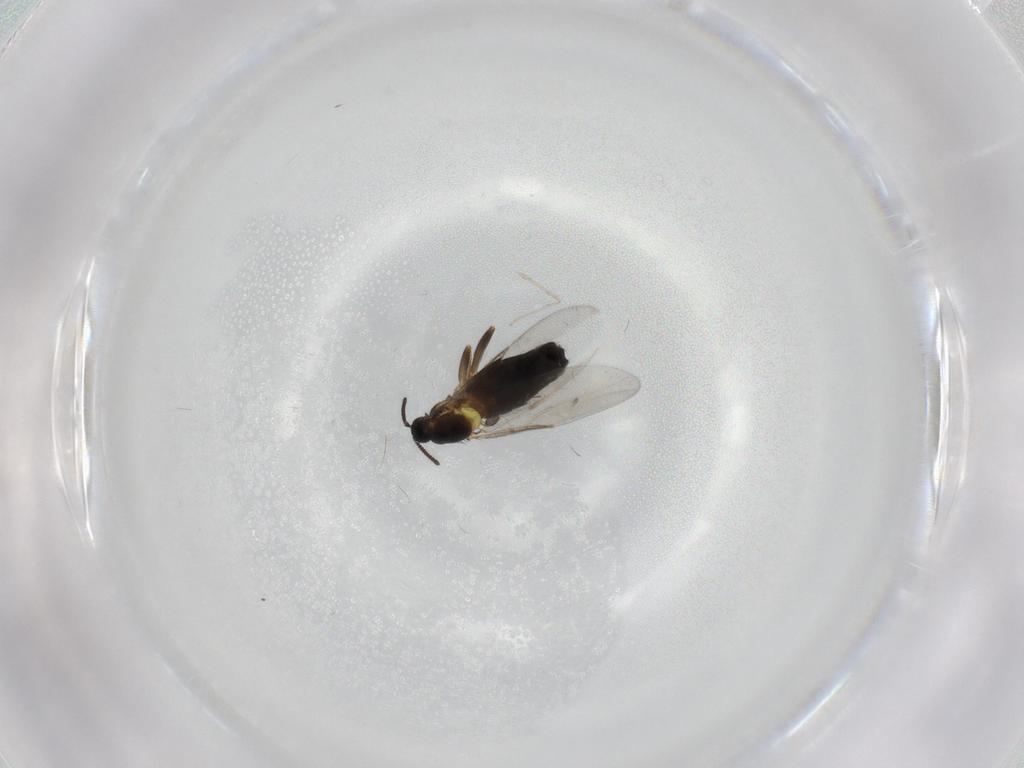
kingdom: Animalia
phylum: Arthropoda
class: Insecta
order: Diptera
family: Scatopsidae
